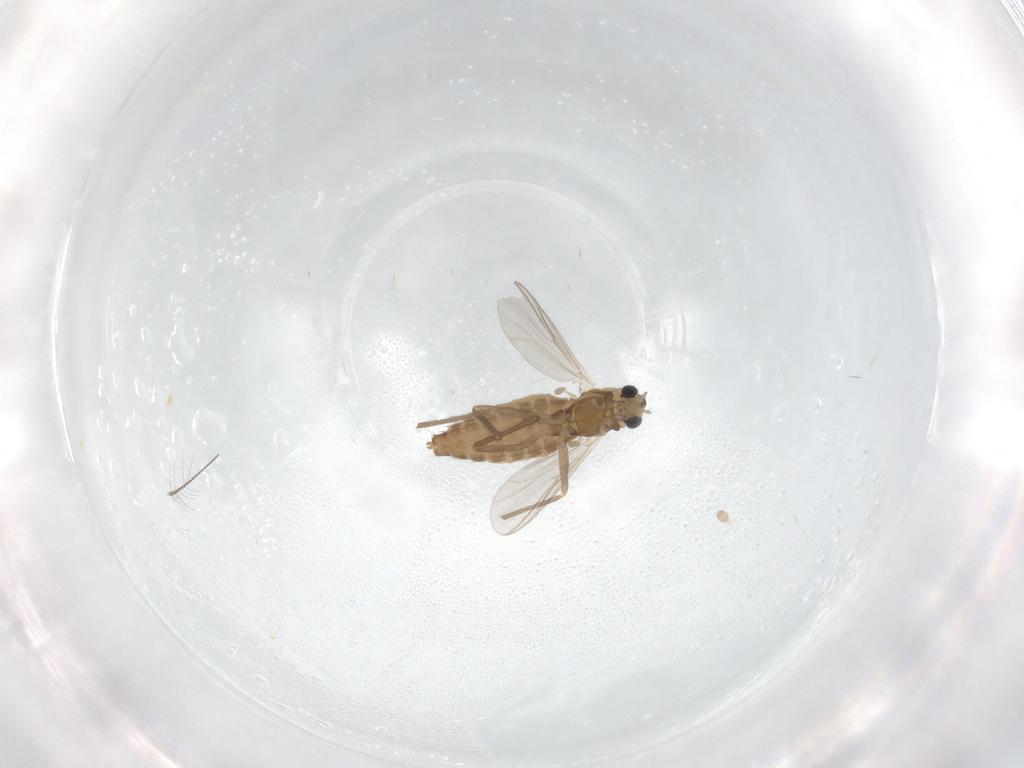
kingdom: Animalia
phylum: Arthropoda
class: Insecta
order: Diptera
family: Chironomidae
